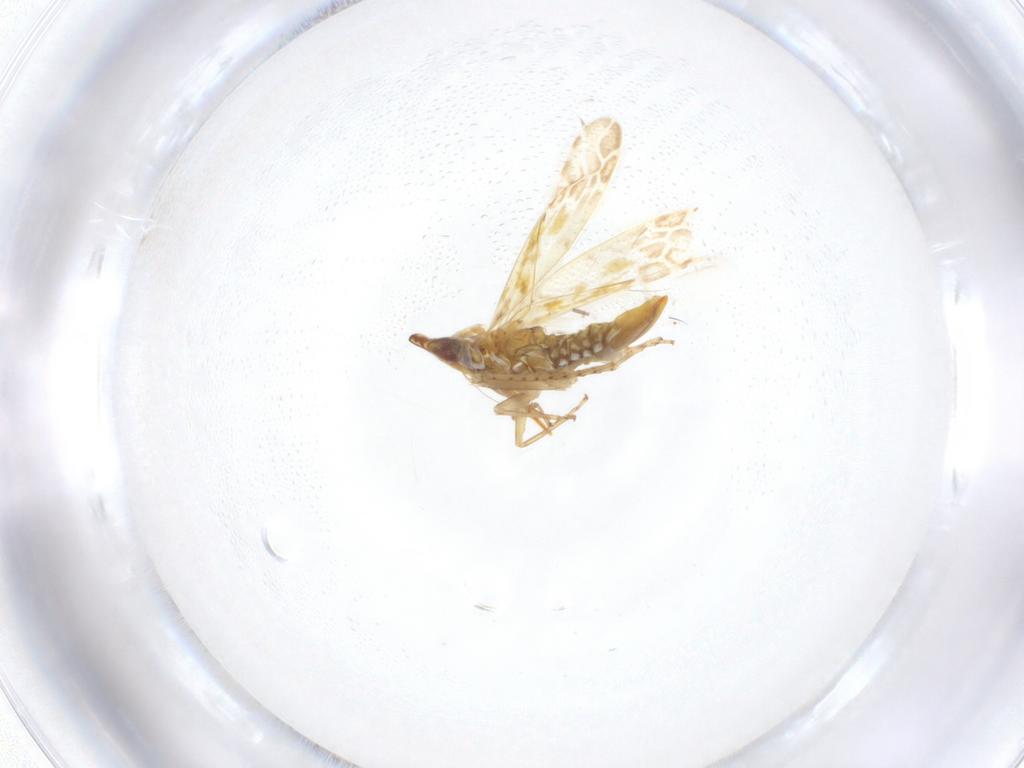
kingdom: Animalia
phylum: Arthropoda
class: Insecta
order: Hemiptera
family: Cicadellidae
